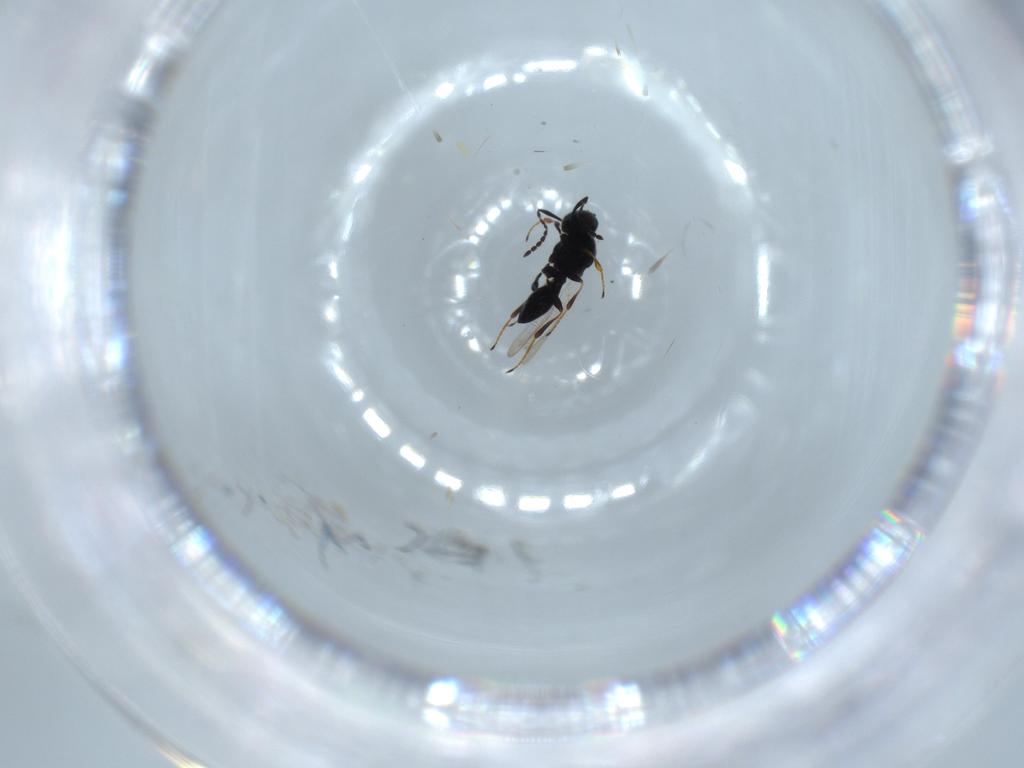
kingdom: Animalia
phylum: Arthropoda
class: Insecta
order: Hymenoptera
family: Platygastridae
